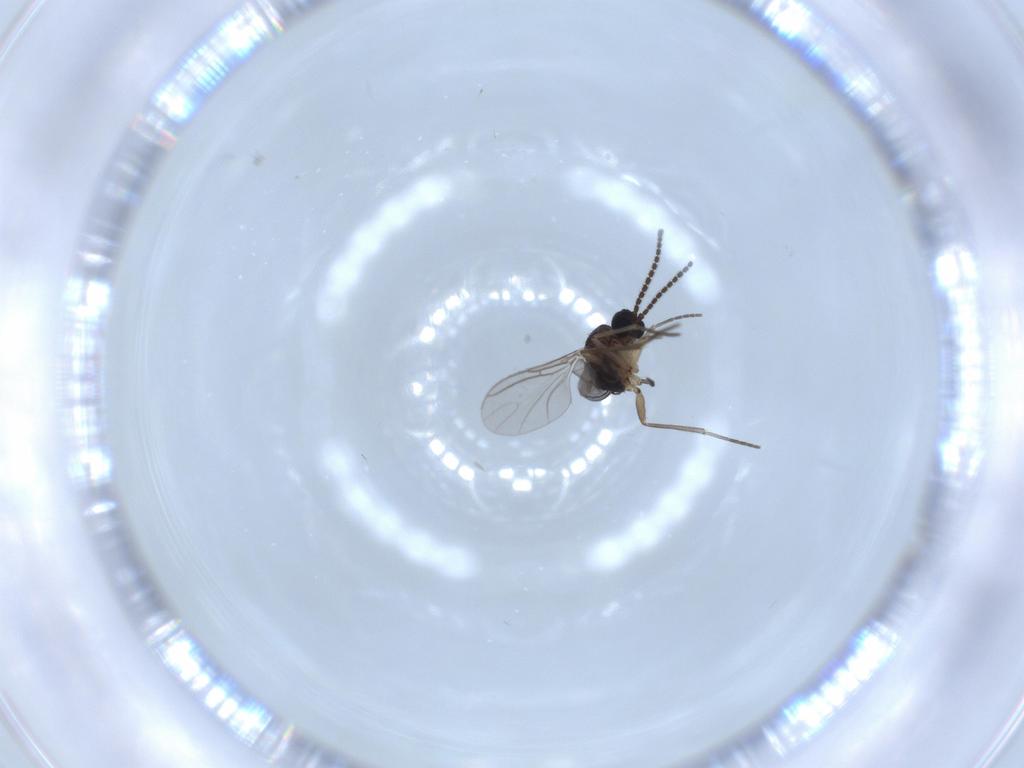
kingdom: Animalia
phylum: Arthropoda
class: Insecta
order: Diptera
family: Sciaridae
